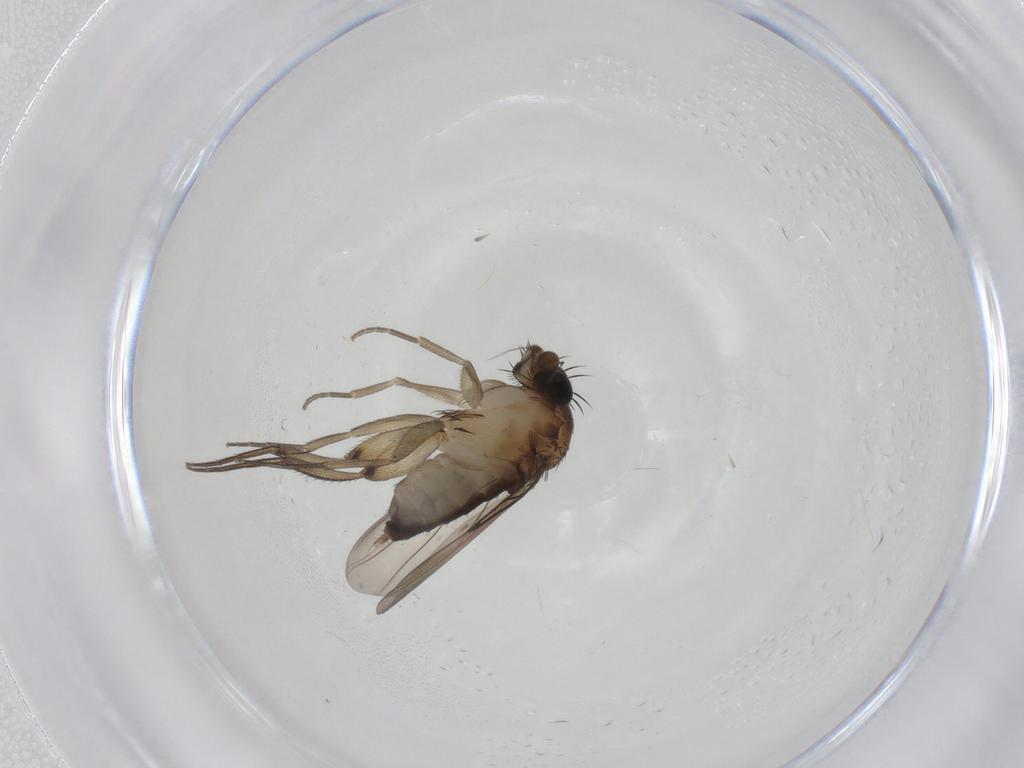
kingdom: Animalia
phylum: Arthropoda
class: Insecta
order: Diptera
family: Phoridae
